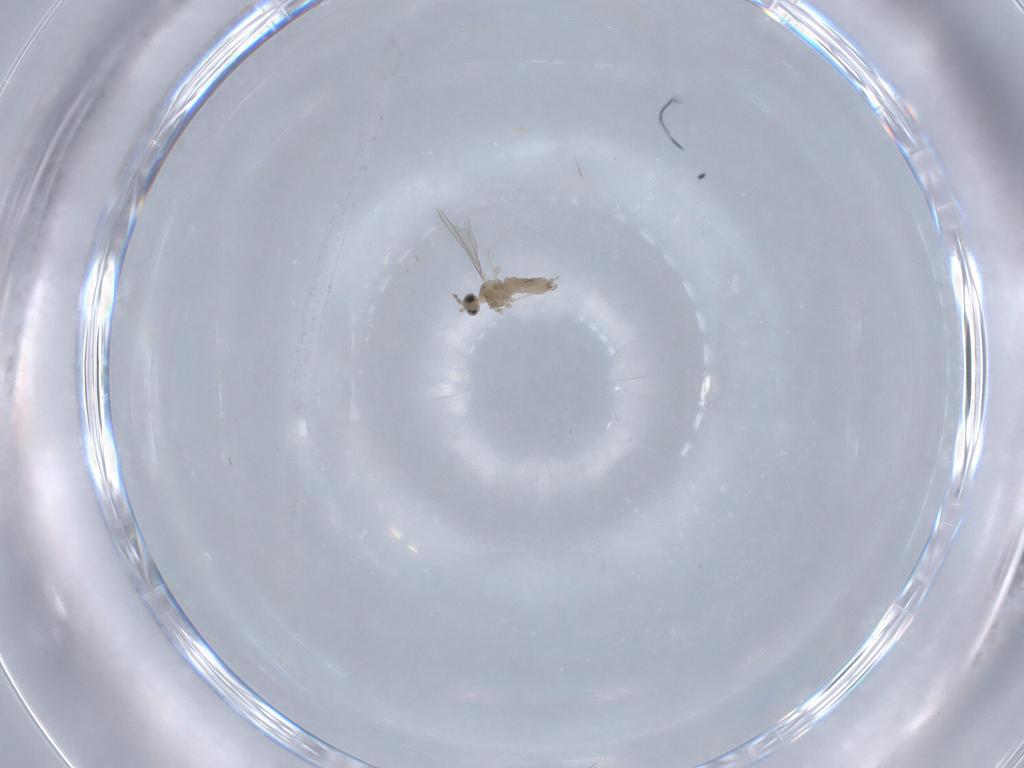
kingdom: Animalia
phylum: Arthropoda
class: Insecta
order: Diptera
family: Cecidomyiidae
